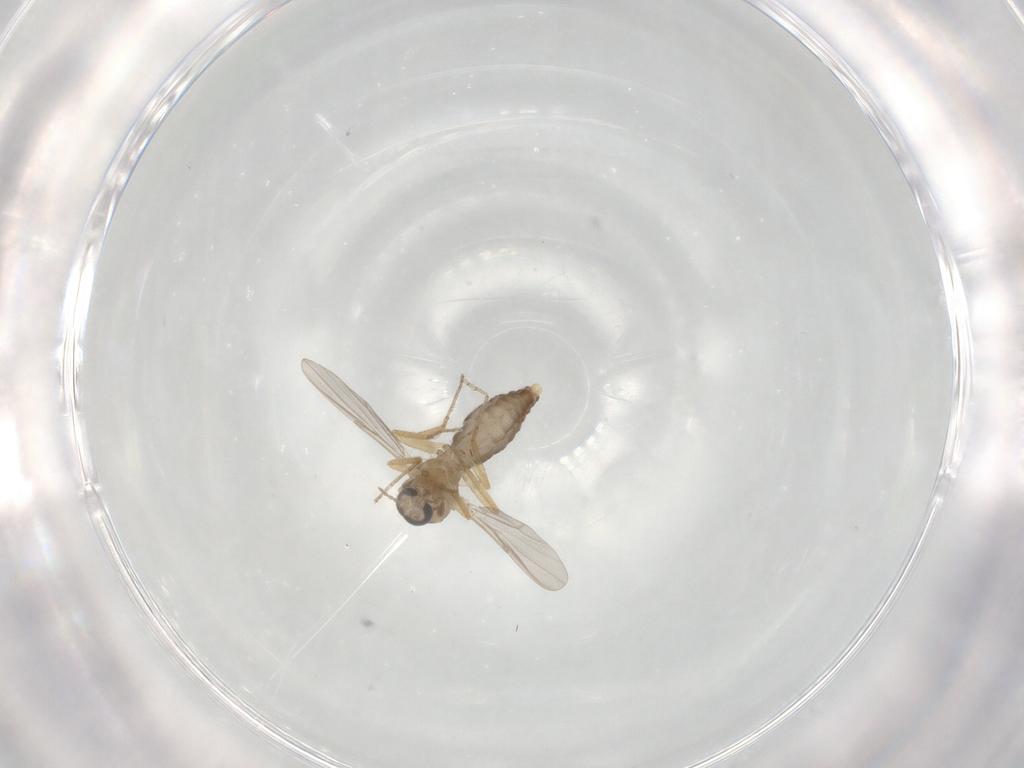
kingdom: Animalia
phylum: Arthropoda
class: Insecta
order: Diptera
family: Ceratopogonidae
